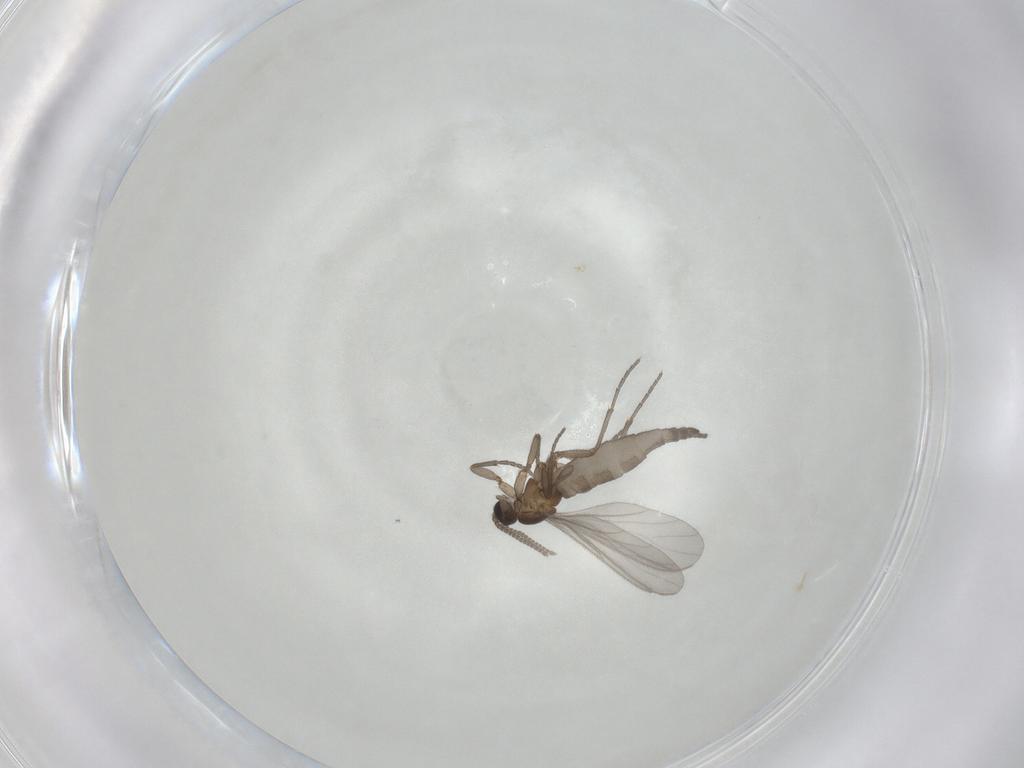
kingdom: Animalia
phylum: Arthropoda
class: Insecta
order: Diptera
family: Sciaridae
